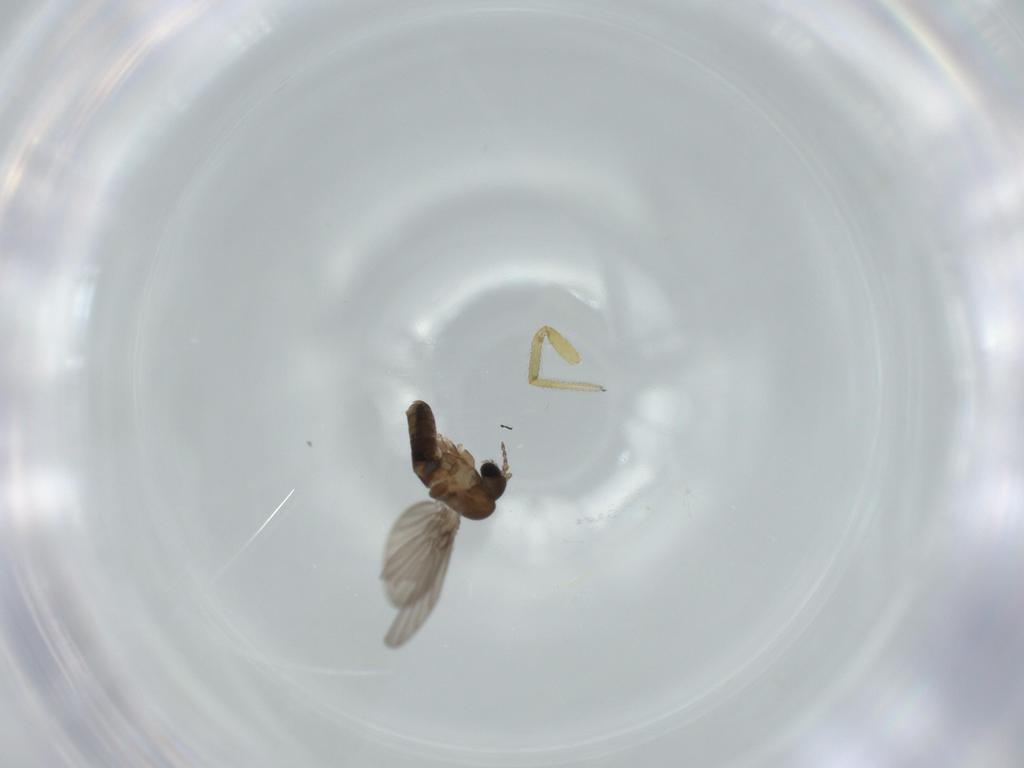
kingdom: Animalia
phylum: Arthropoda
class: Insecta
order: Diptera
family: Psychodidae
